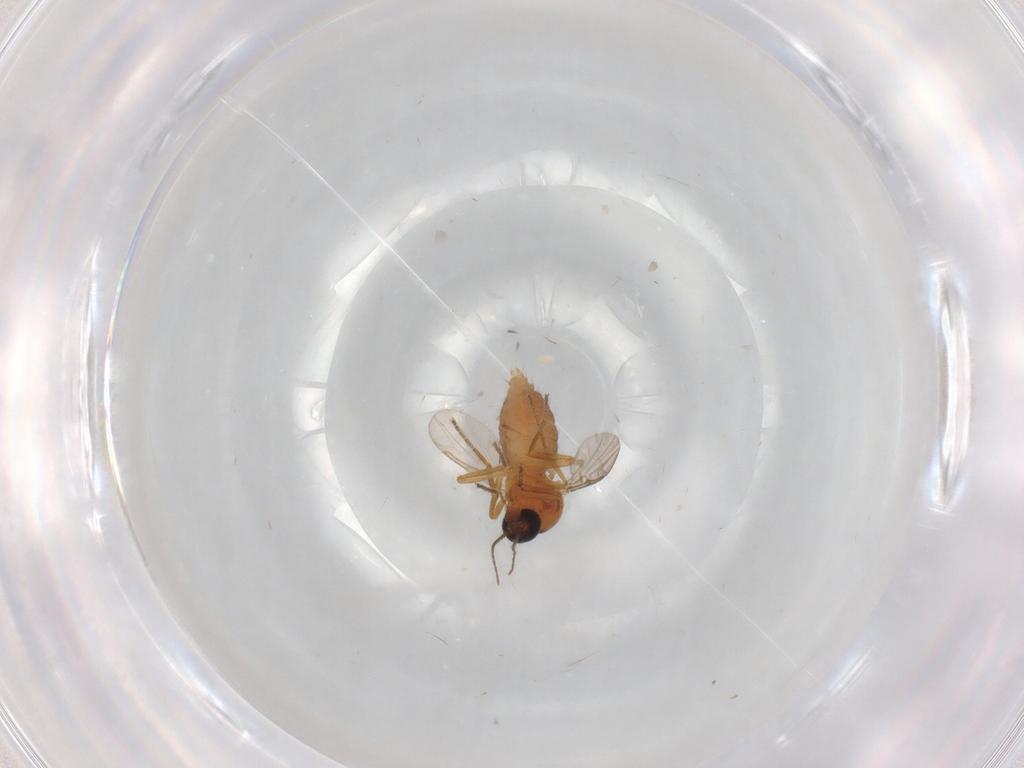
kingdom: Animalia
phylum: Arthropoda
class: Insecta
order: Diptera
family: Ceratopogonidae
